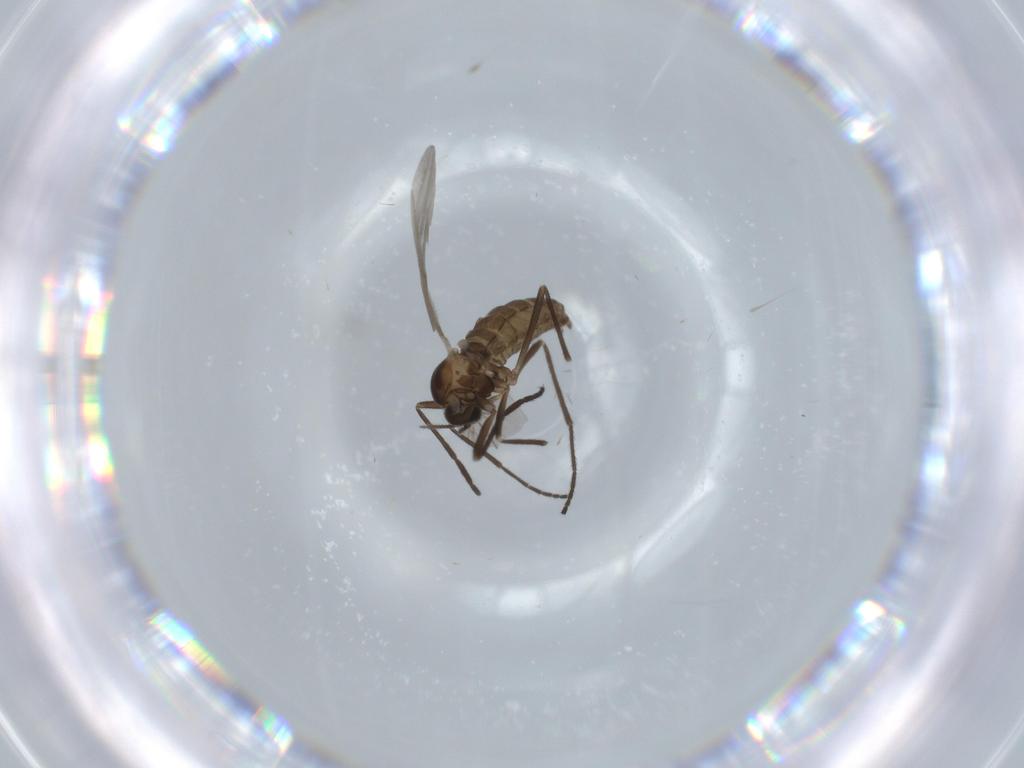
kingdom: Animalia
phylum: Arthropoda
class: Insecta
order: Diptera
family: Cecidomyiidae
